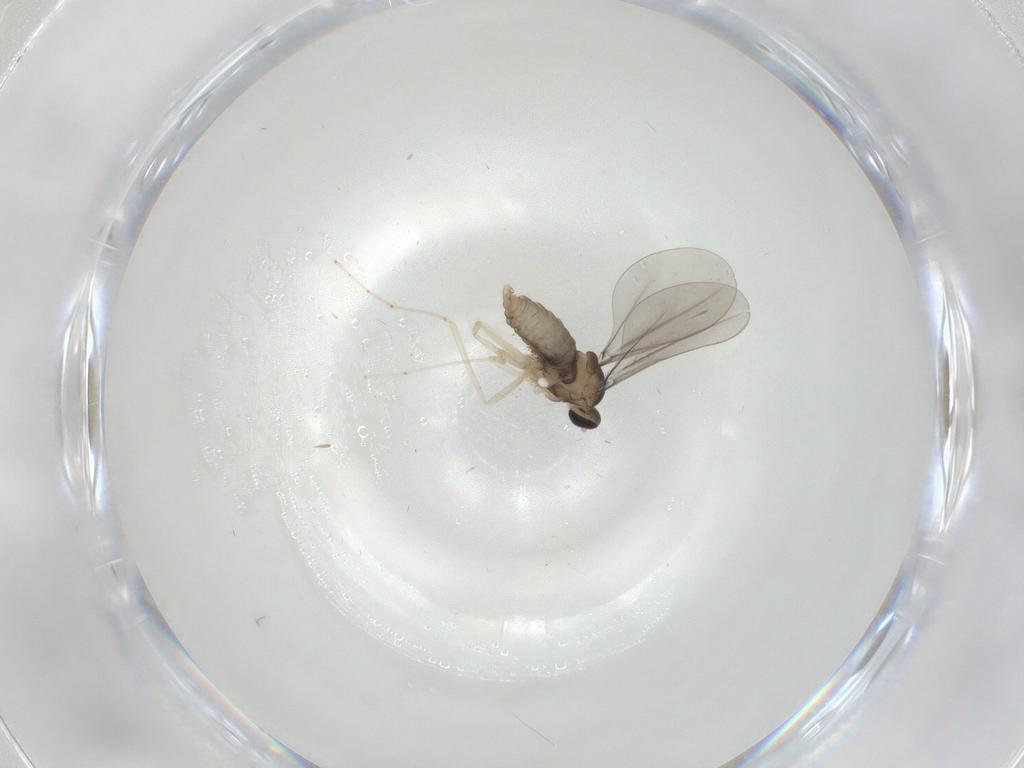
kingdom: Animalia
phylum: Arthropoda
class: Insecta
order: Diptera
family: Cecidomyiidae
